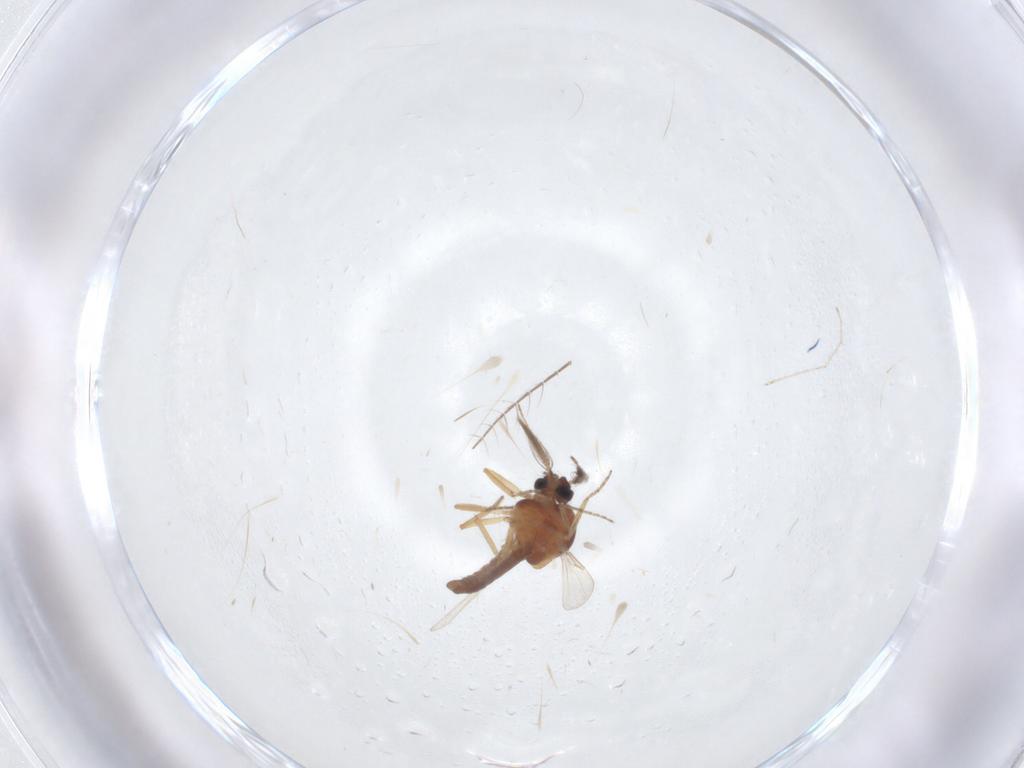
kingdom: Animalia
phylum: Arthropoda
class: Insecta
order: Diptera
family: Ceratopogonidae
